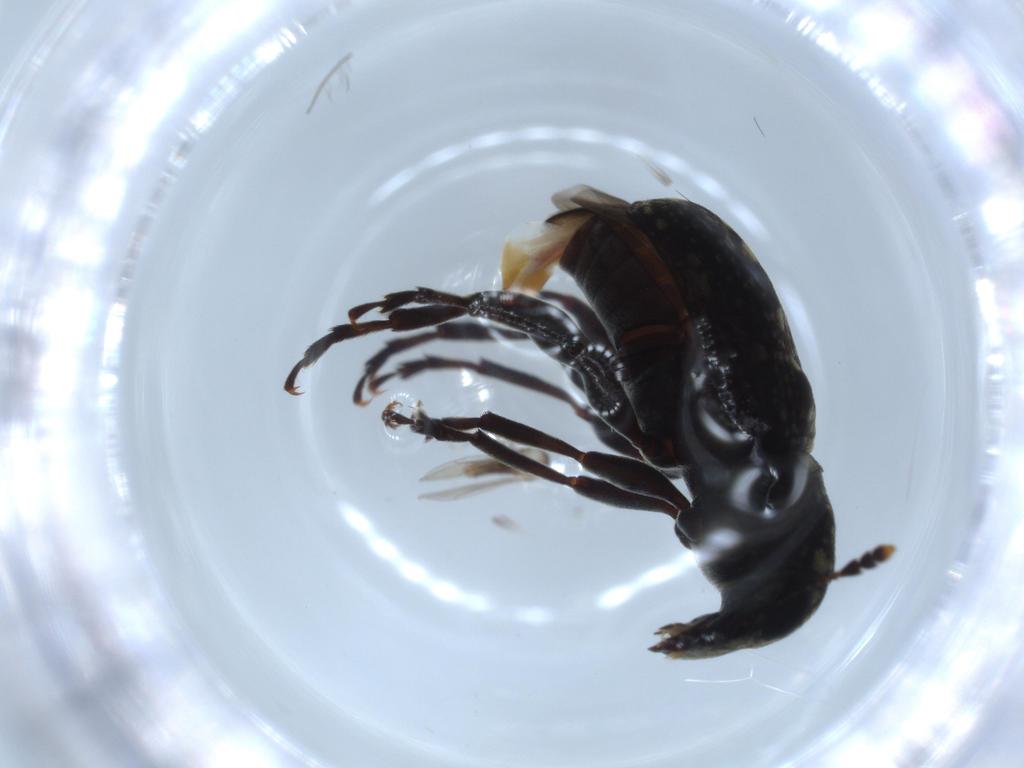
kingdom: Animalia
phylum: Arthropoda
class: Insecta
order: Coleoptera
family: Anthribidae
